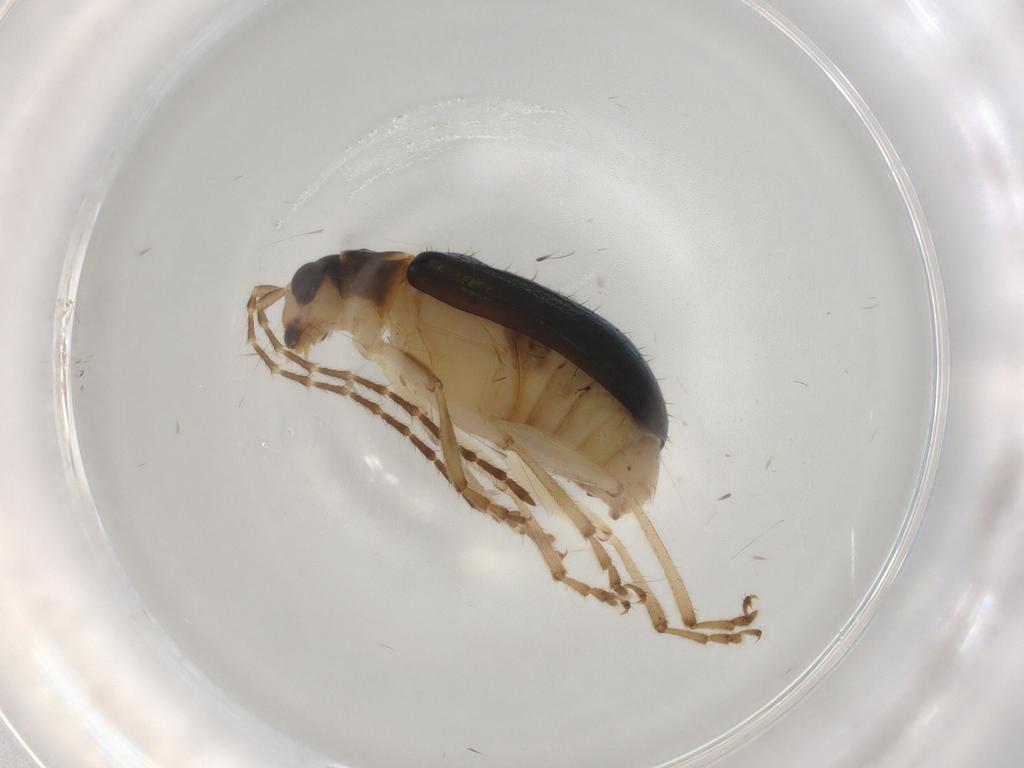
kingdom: Animalia
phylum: Arthropoda
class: Insecta
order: Coleoptera
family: Chrysomelidae
